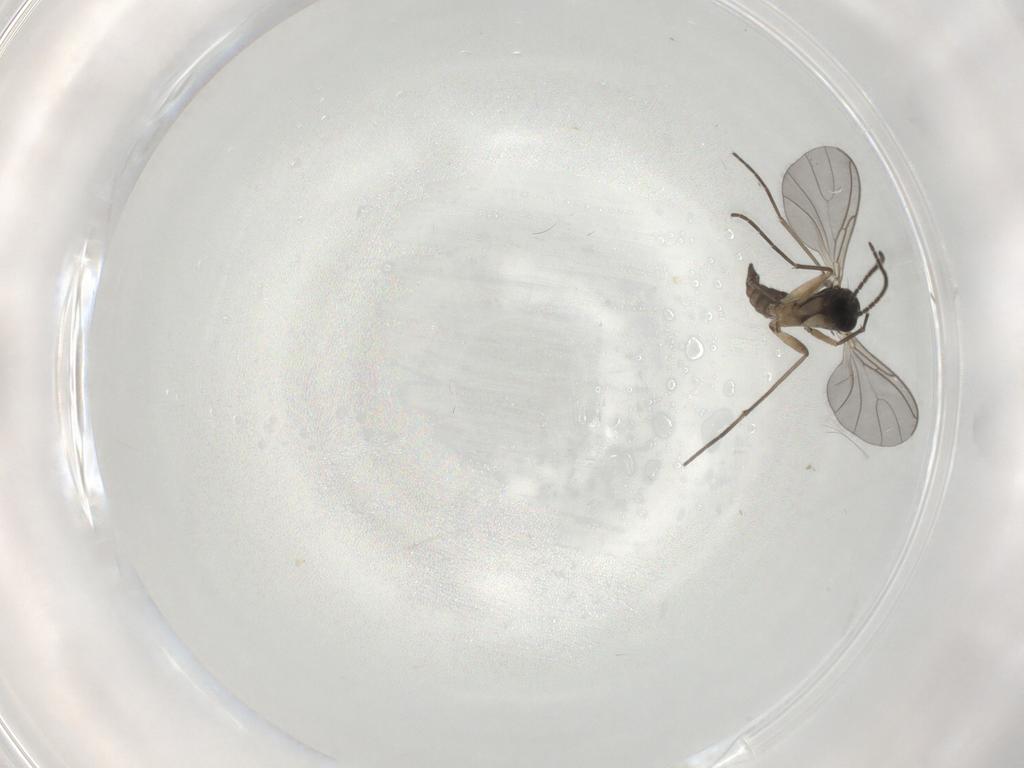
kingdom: Animalia
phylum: Arthropoda
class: Insecta
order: Diptera
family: Sciaridae
